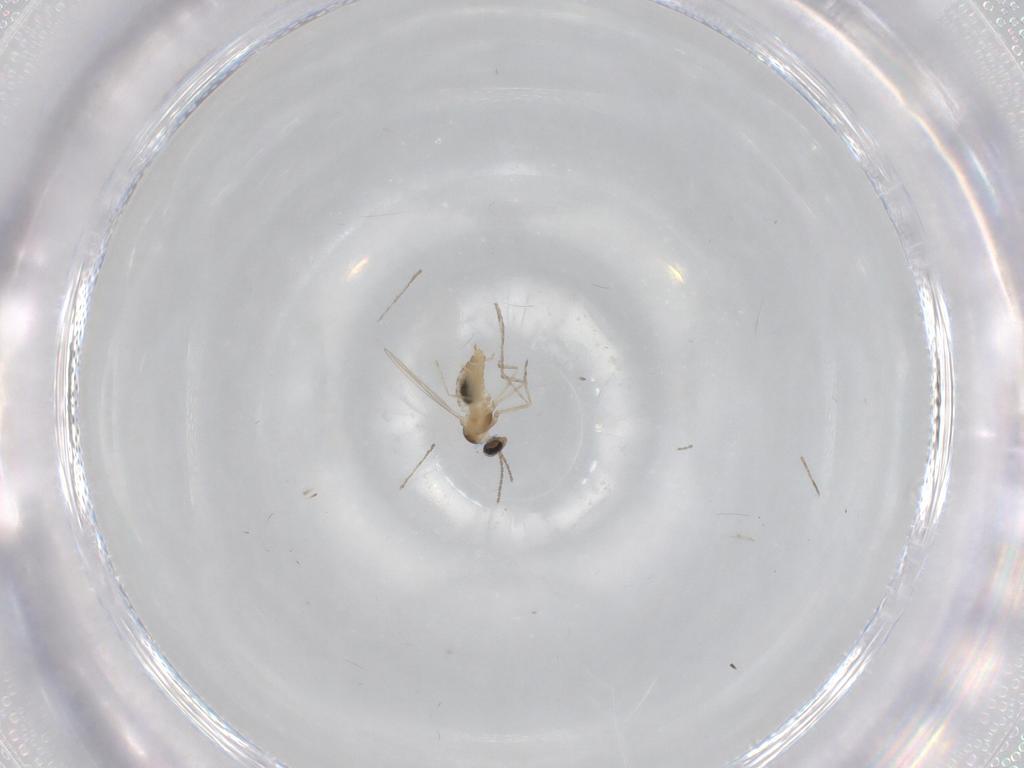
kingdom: Animalia
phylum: Arthropoda
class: Insecta
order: Diptera
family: Cecidomyiidae
